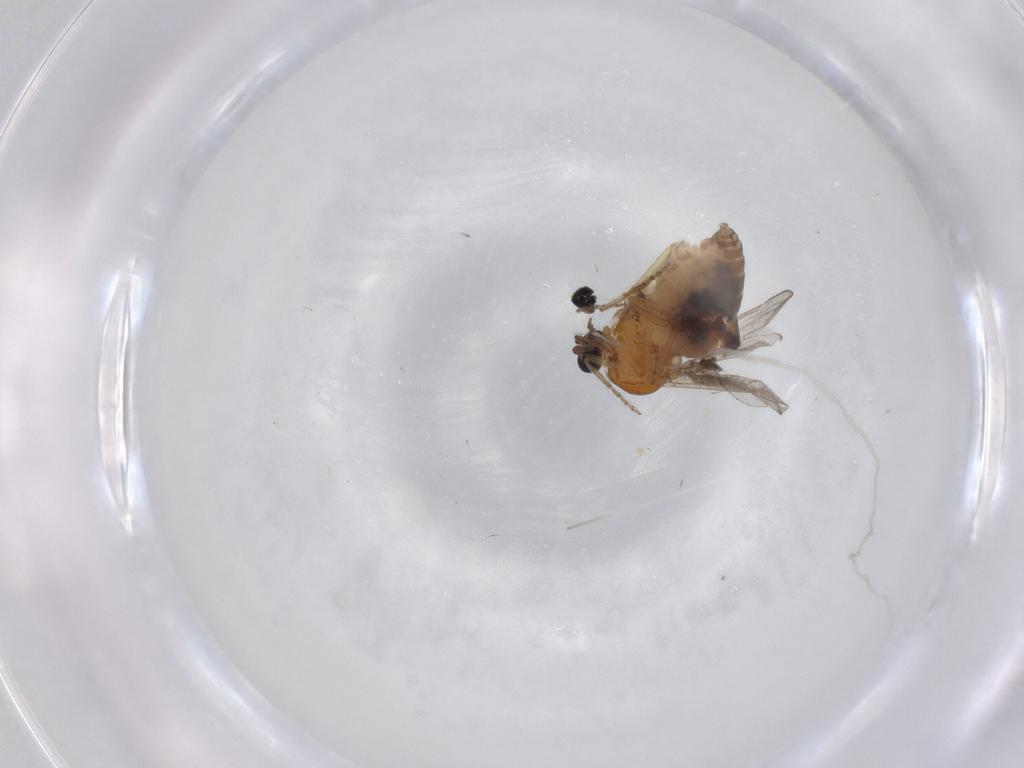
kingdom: Animalia
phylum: Arthropoda
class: Insecta
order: Diptera
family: Ceratopogonidae
